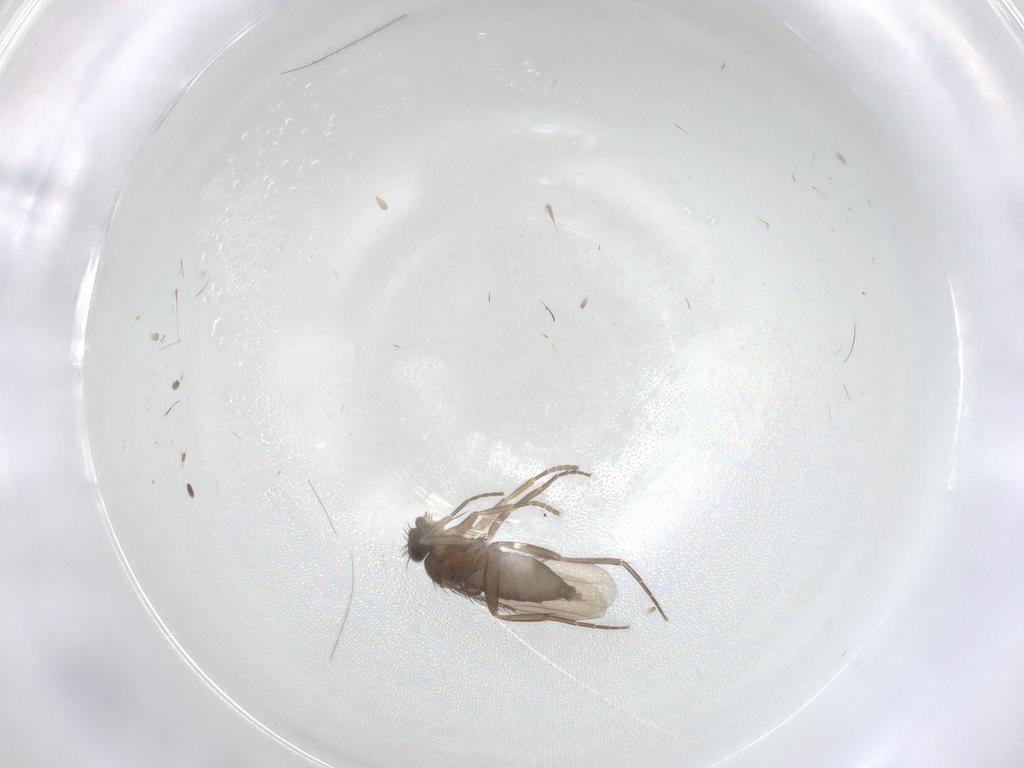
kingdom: Animalia
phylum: Arthropoda
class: Insecta
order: Diptera
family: Phoridae
